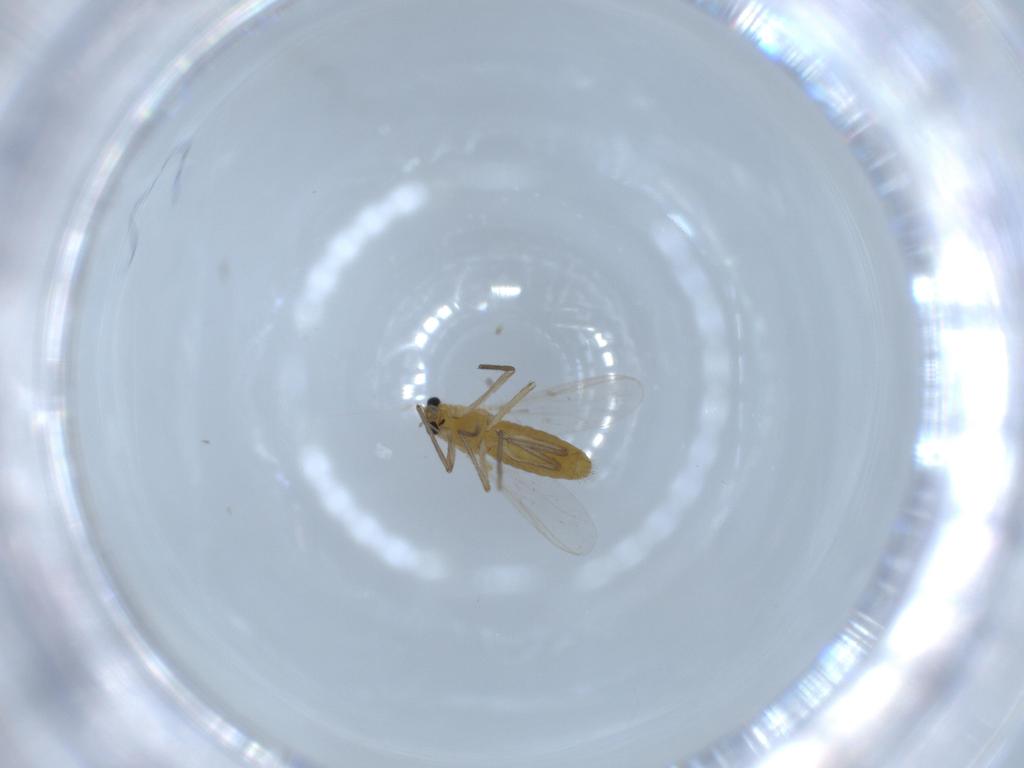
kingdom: Animalia
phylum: Arthropoda
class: Insecta
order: Diptera
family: Chironomidae
